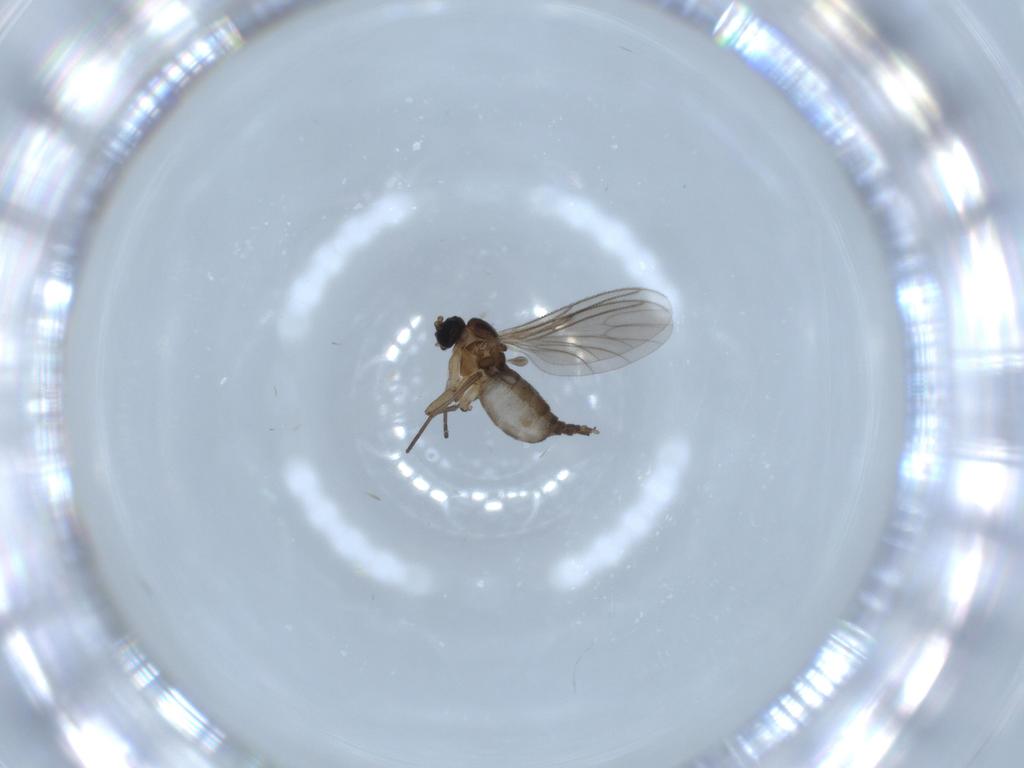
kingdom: Animalia
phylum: Arthropoda
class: Insecta
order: Diptera
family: Sciaridae
